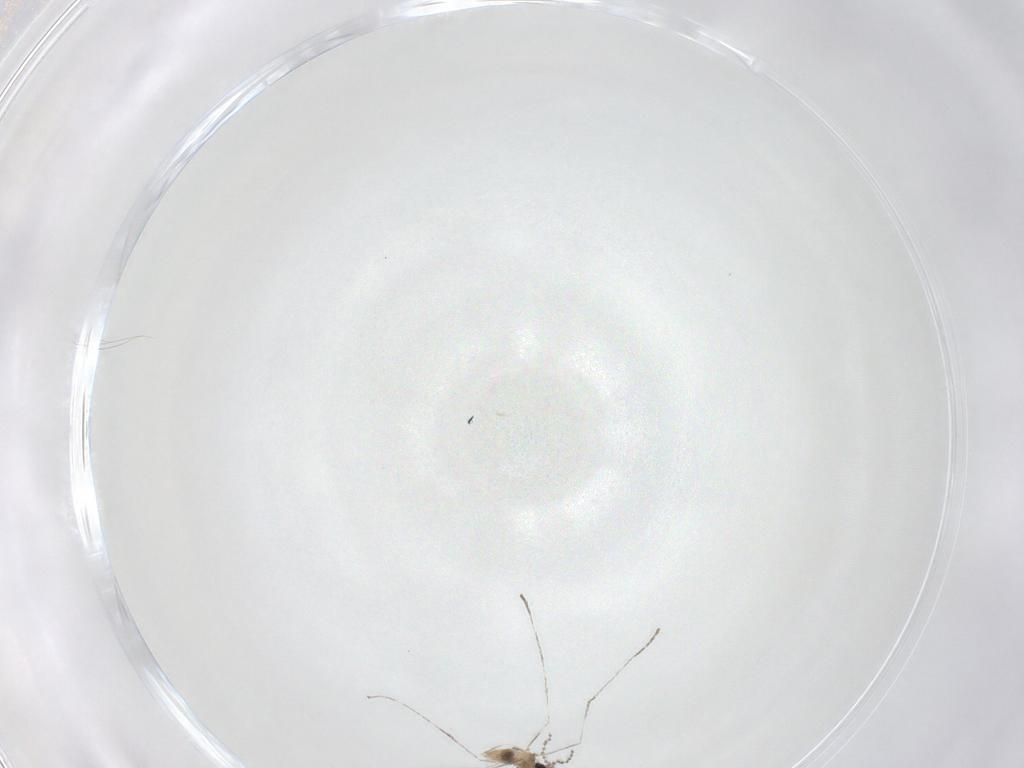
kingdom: Animalia
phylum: Arthropoda
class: Insecta
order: Diptera
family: Cecidomyiidae
